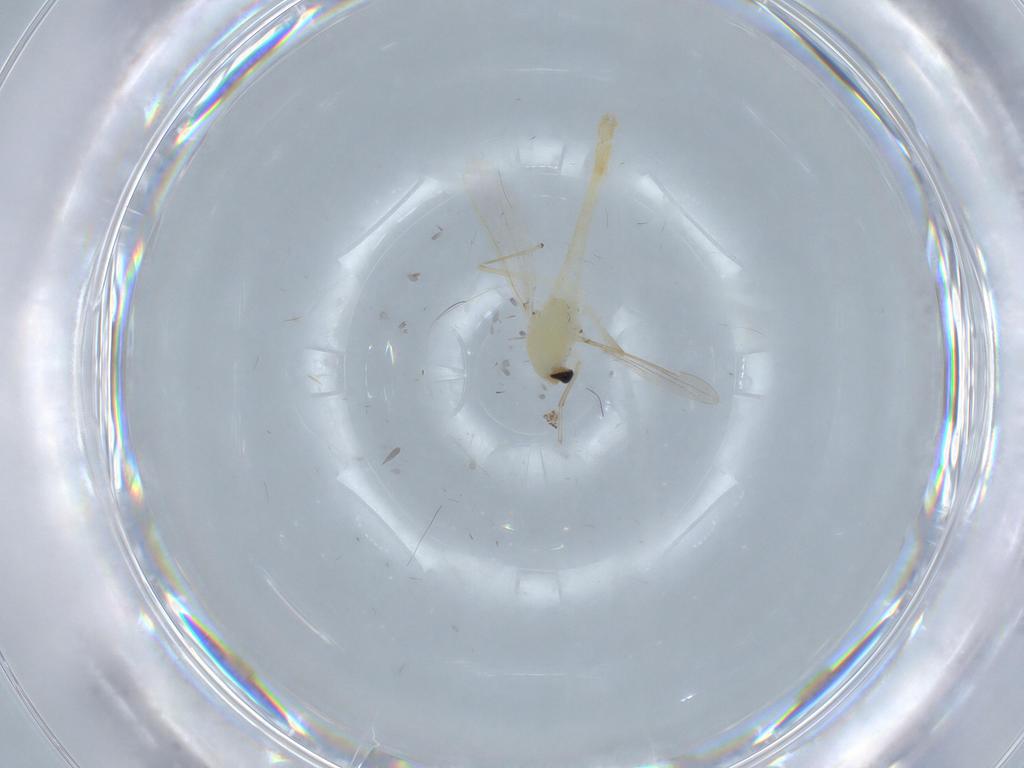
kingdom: Animalia
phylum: Arthropoda
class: Insecta
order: Diptera
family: Chironomidae
